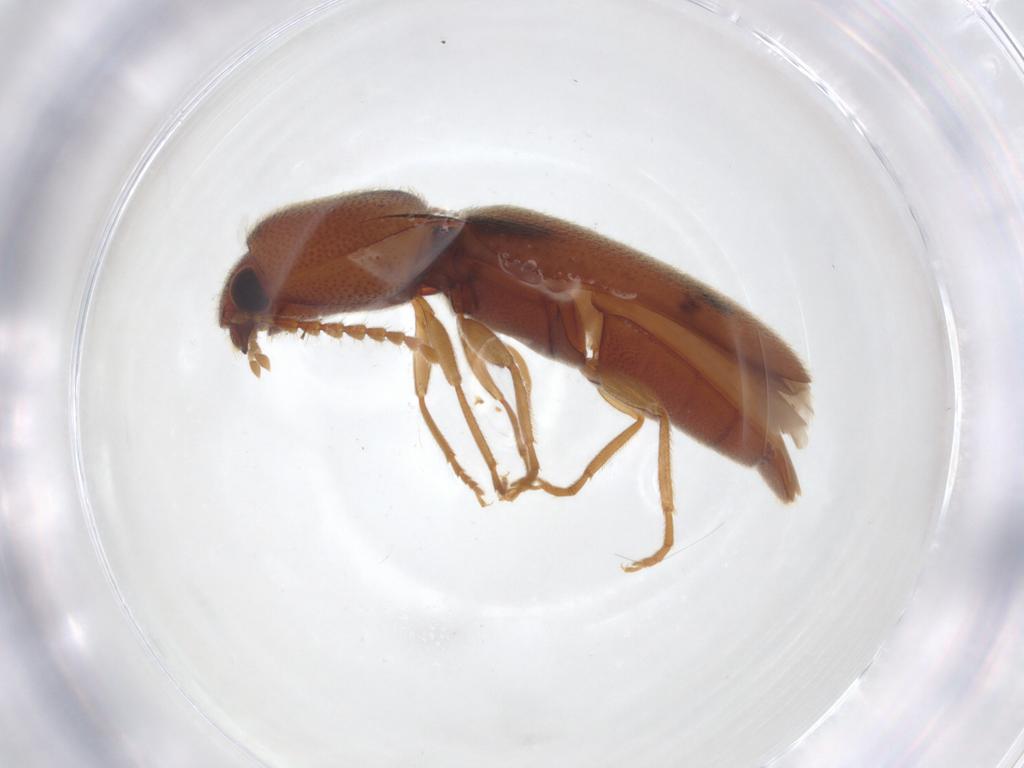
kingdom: Animalia
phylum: Arthropoda
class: Insecta
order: Coleoptera
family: Elateridae
